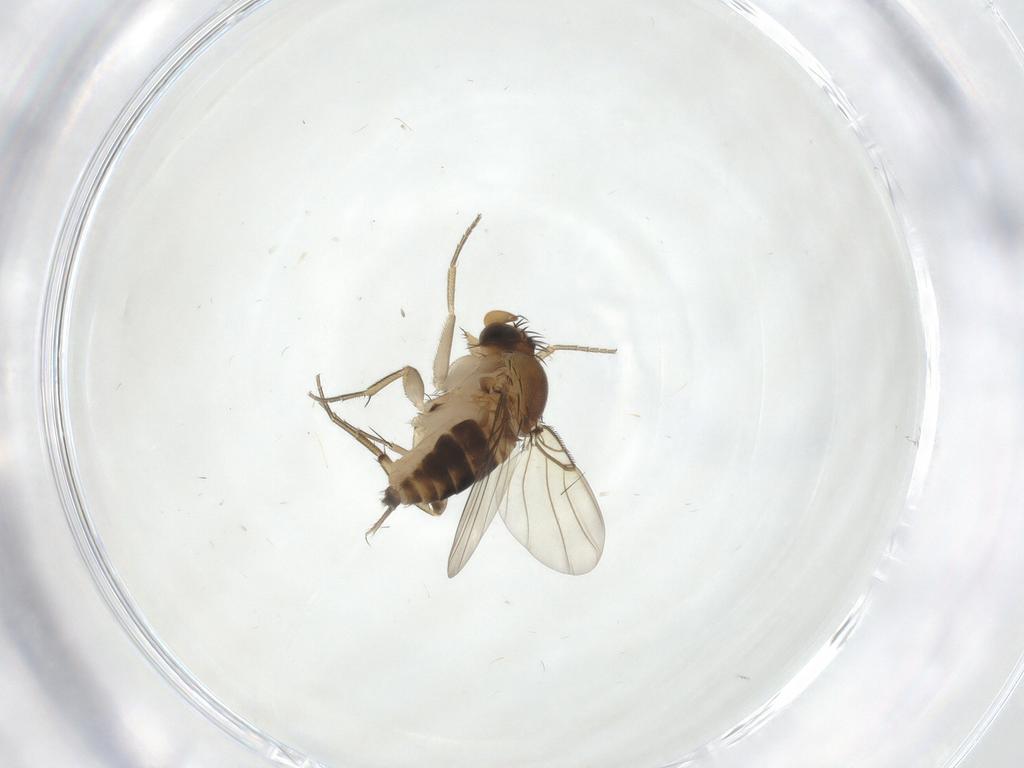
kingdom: Animalia
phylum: Arthropoda
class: Insecta
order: Diptera
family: Phoridae
